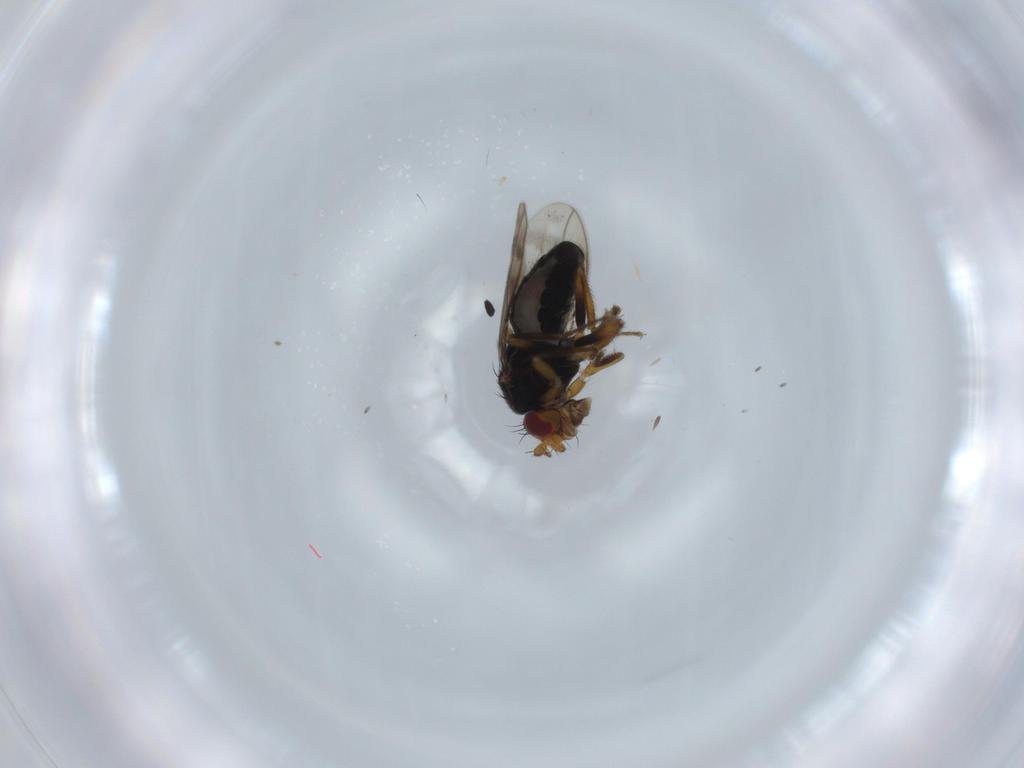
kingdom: Animalia
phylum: Arthropoda
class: Insecta
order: Diptera
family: Sphaeroceridae
